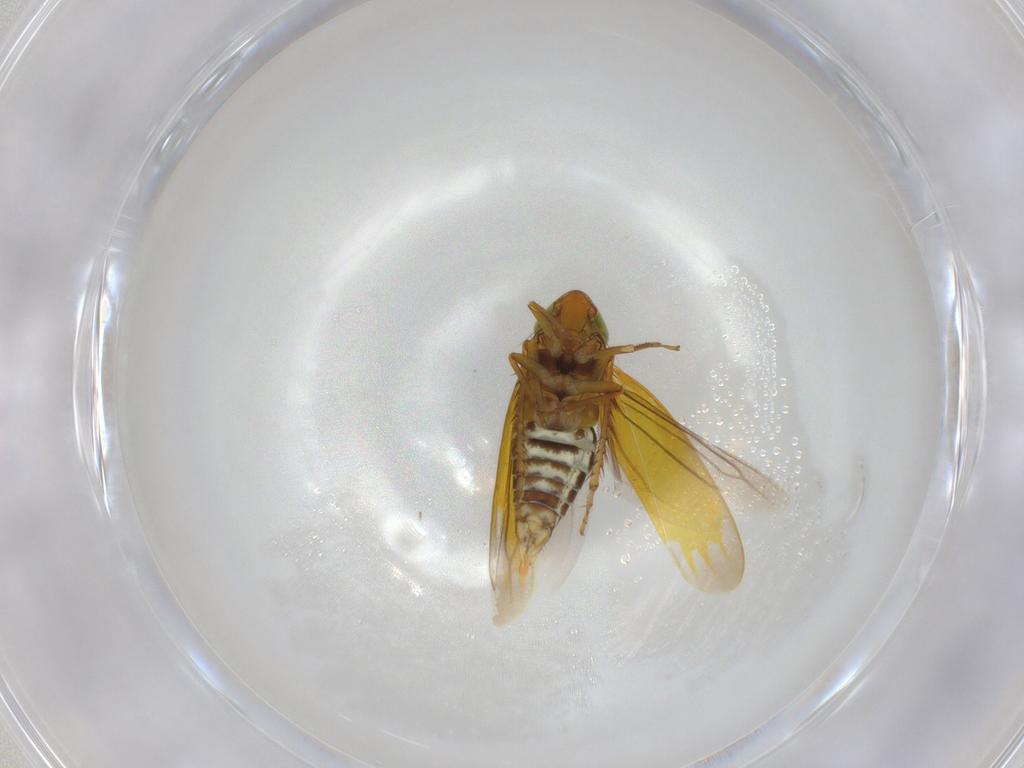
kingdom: Animalia
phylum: Arthropoda
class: Insecta
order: Hemiptera
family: Cicadellidae
